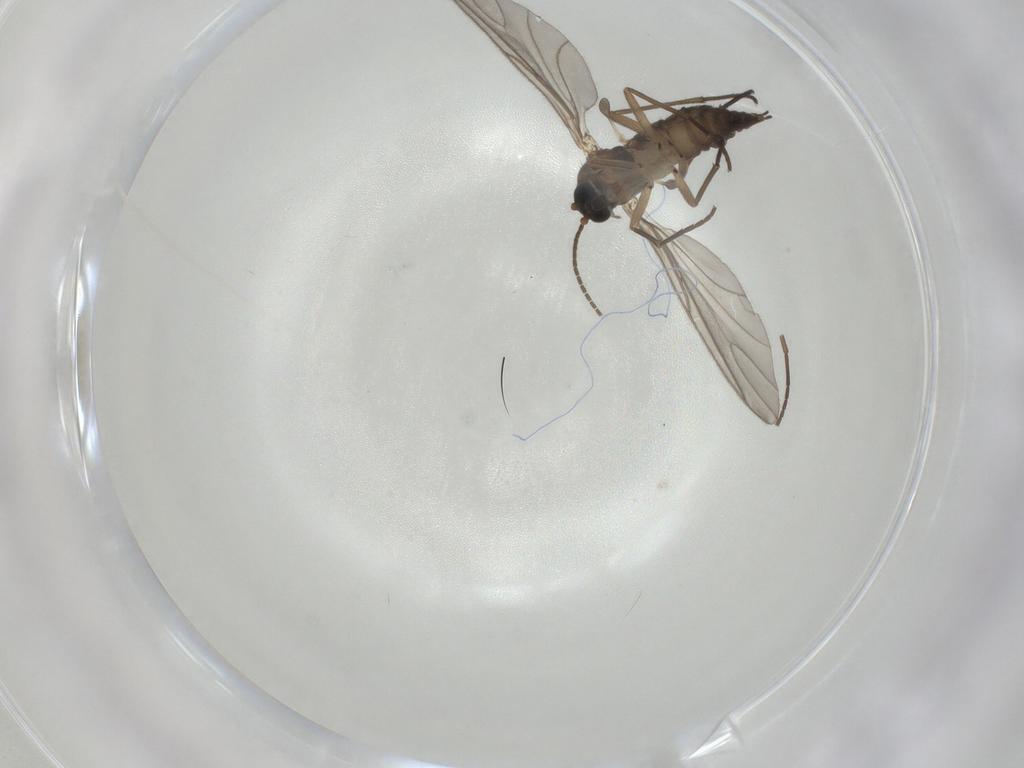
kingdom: Animalia
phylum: Arthropoda
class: Insecta
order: Diptera
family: Sciaridae
